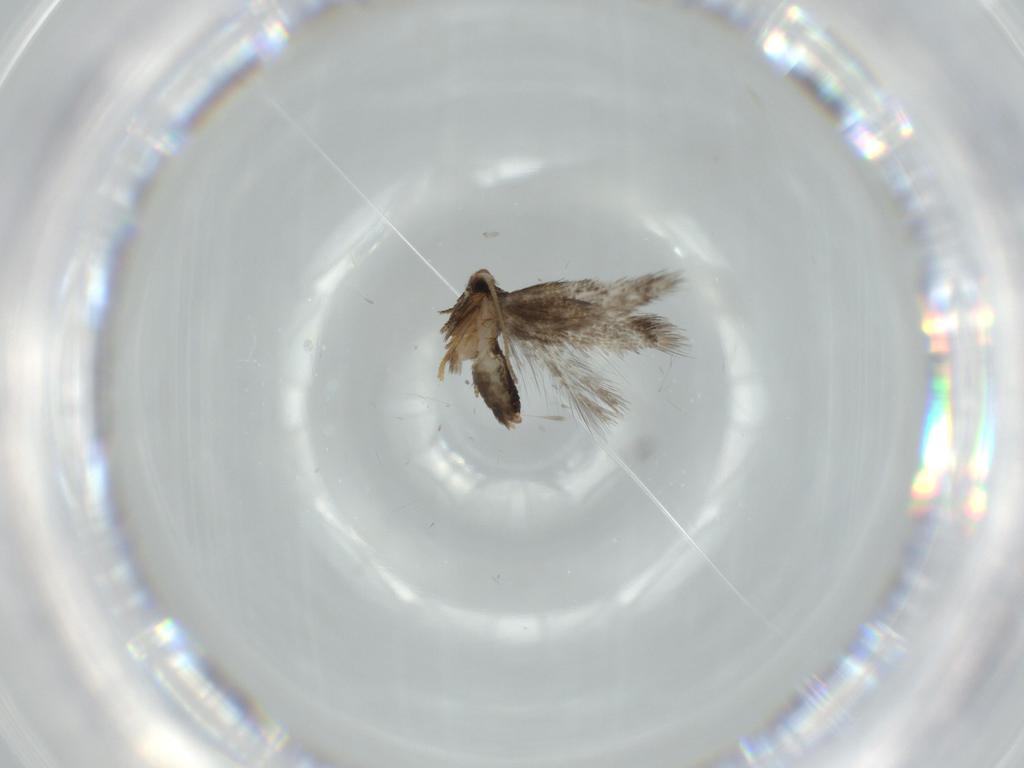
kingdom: Animalia
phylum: Arthropoda
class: Insecta
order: Lepidoptera
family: Nepticulidae
